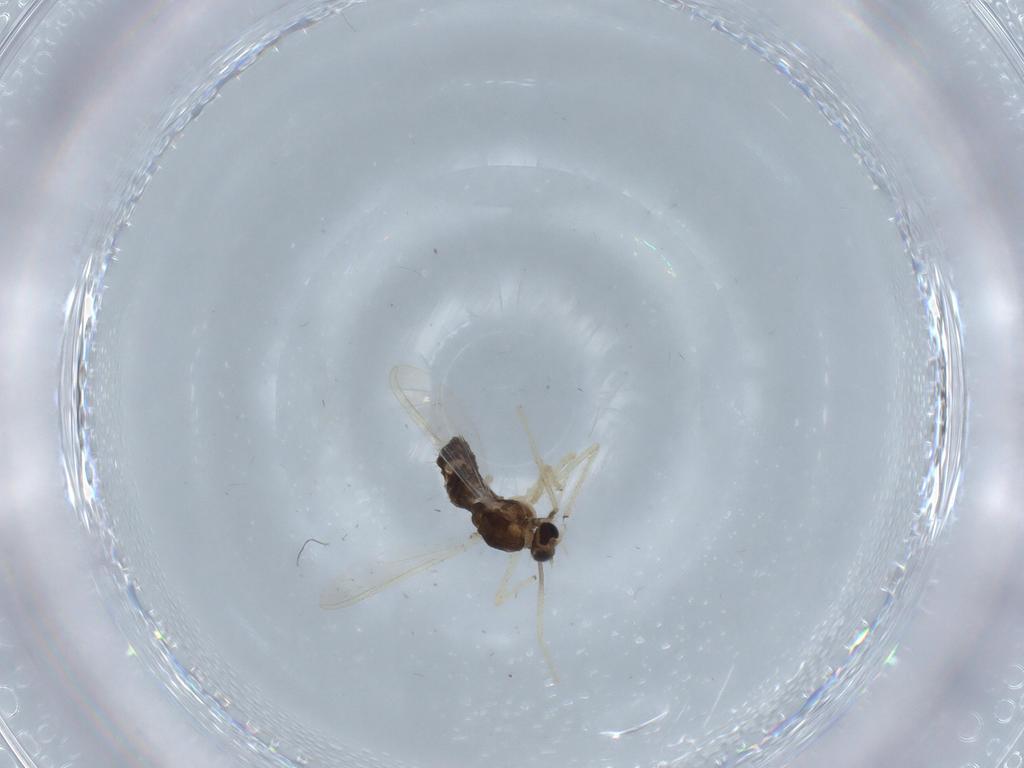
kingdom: Animalia
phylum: Arthropoda
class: Insecta
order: Diptera
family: Chironomidae
